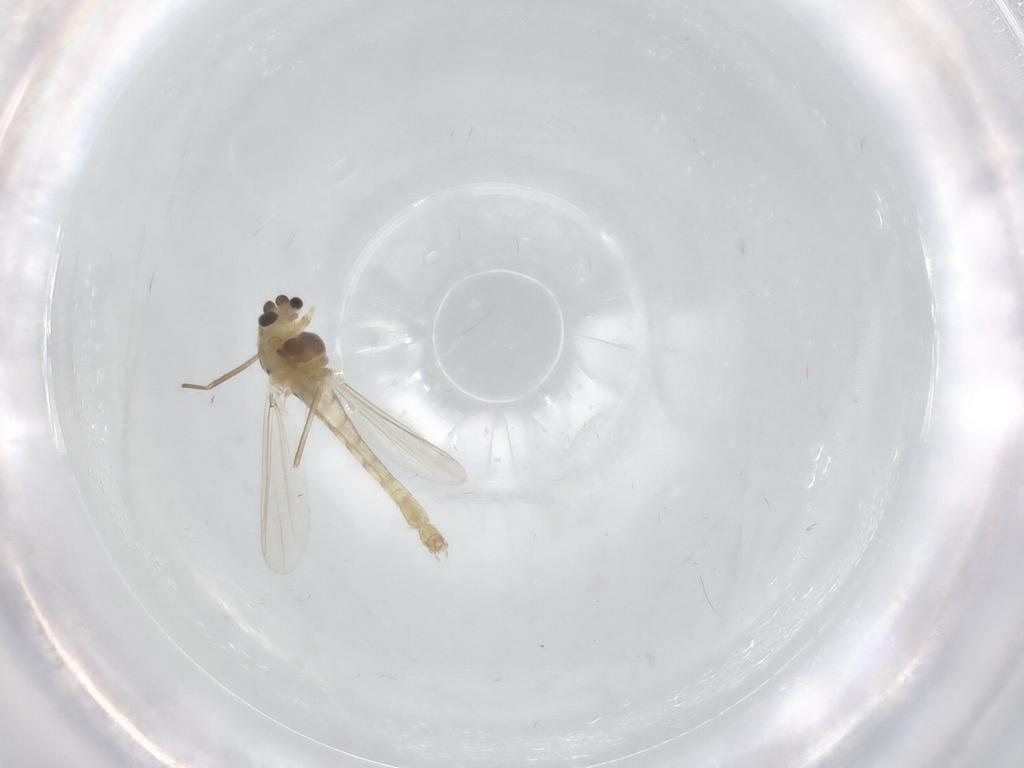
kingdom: Animalia
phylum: Arthropoda
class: Insecta
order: Diptera
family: Chironomidae
